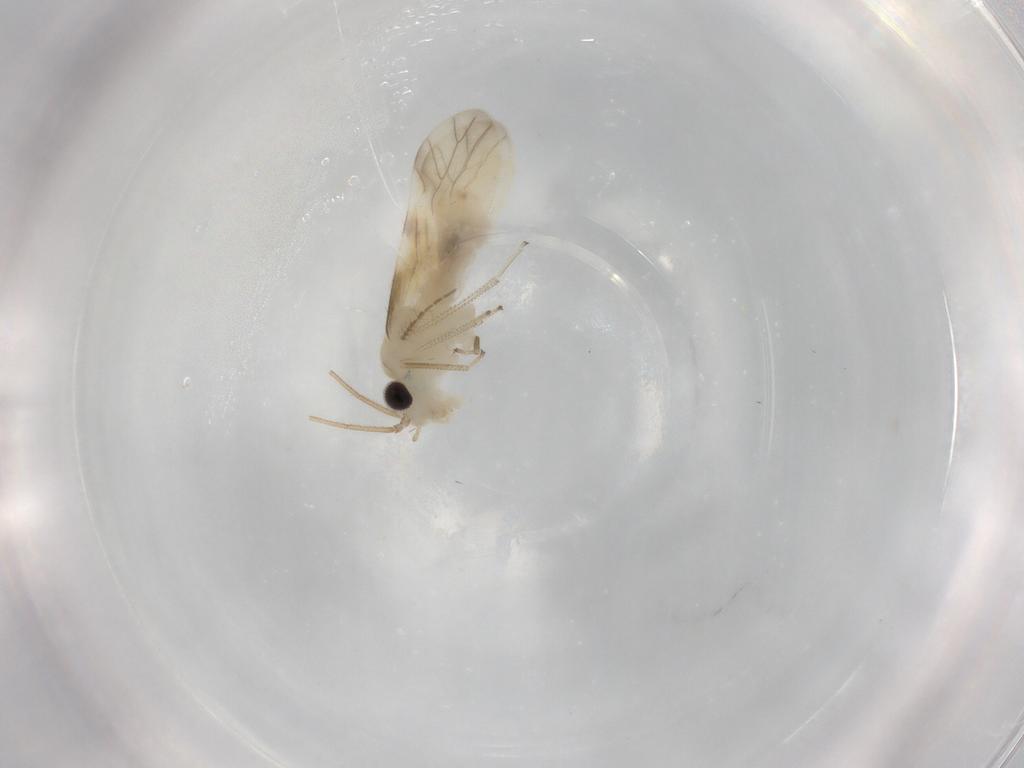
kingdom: Animalia
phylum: Arthropoda
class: Insecta
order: Psocodea
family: Caeciliusidae
